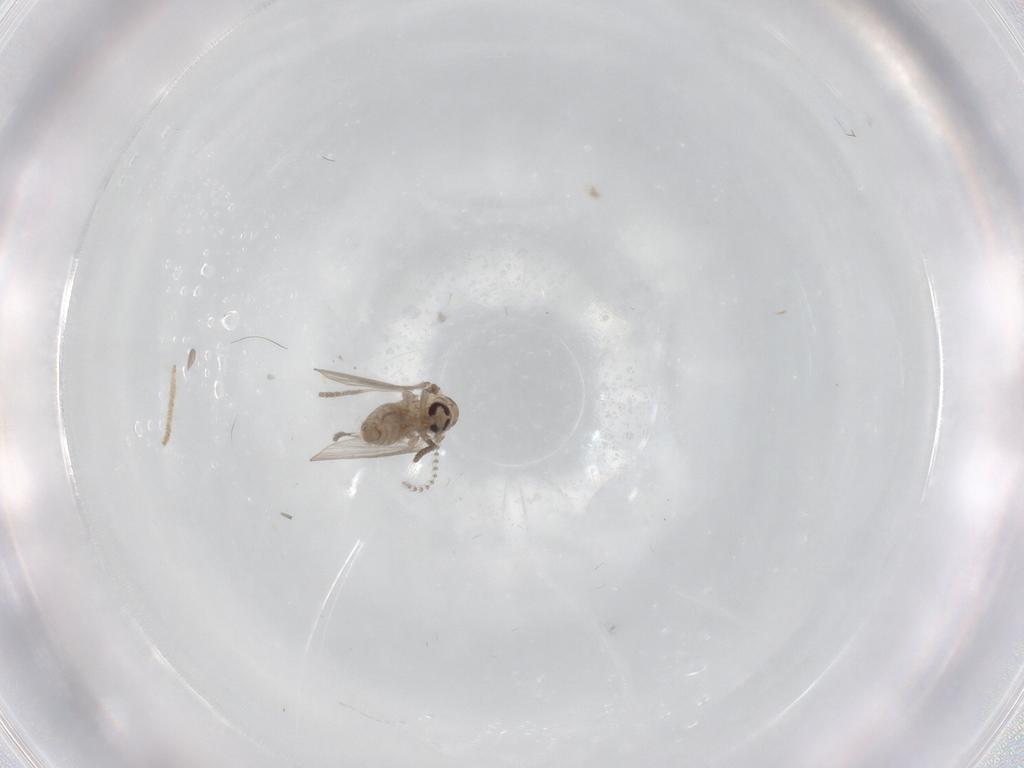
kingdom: Animalia
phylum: Arthropoda
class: Insecta
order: Diptera
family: Psychodidae
